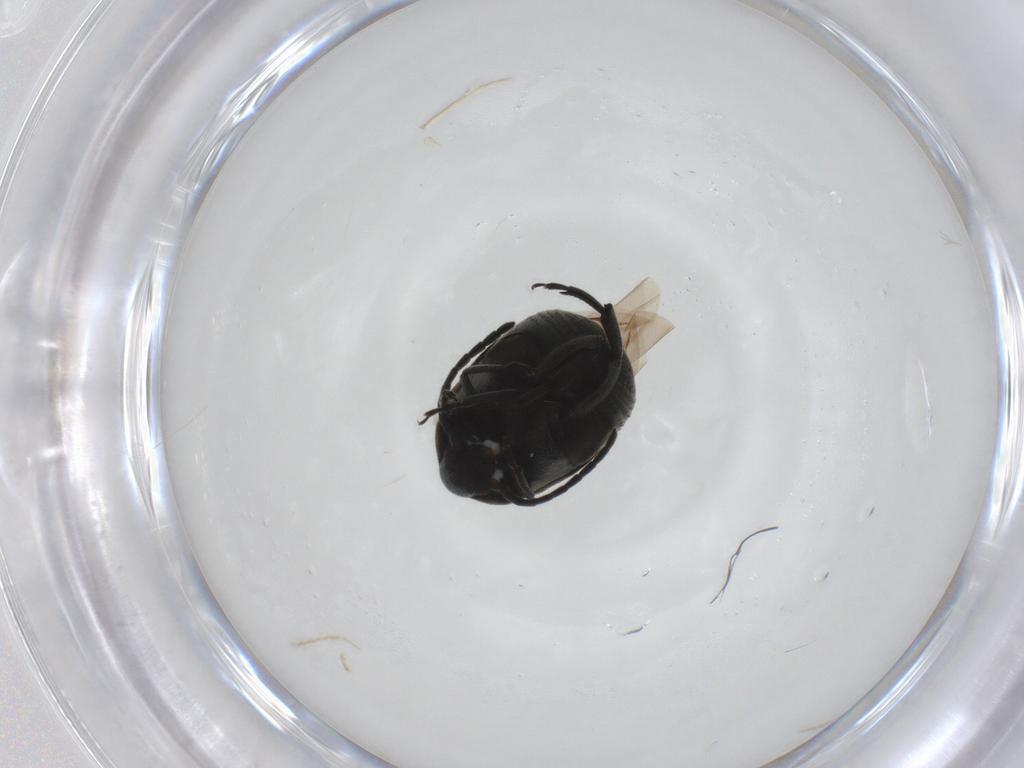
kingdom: Animalia
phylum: Arthropoda
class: Insecta
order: Coleoptera
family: Chrysomelidae
